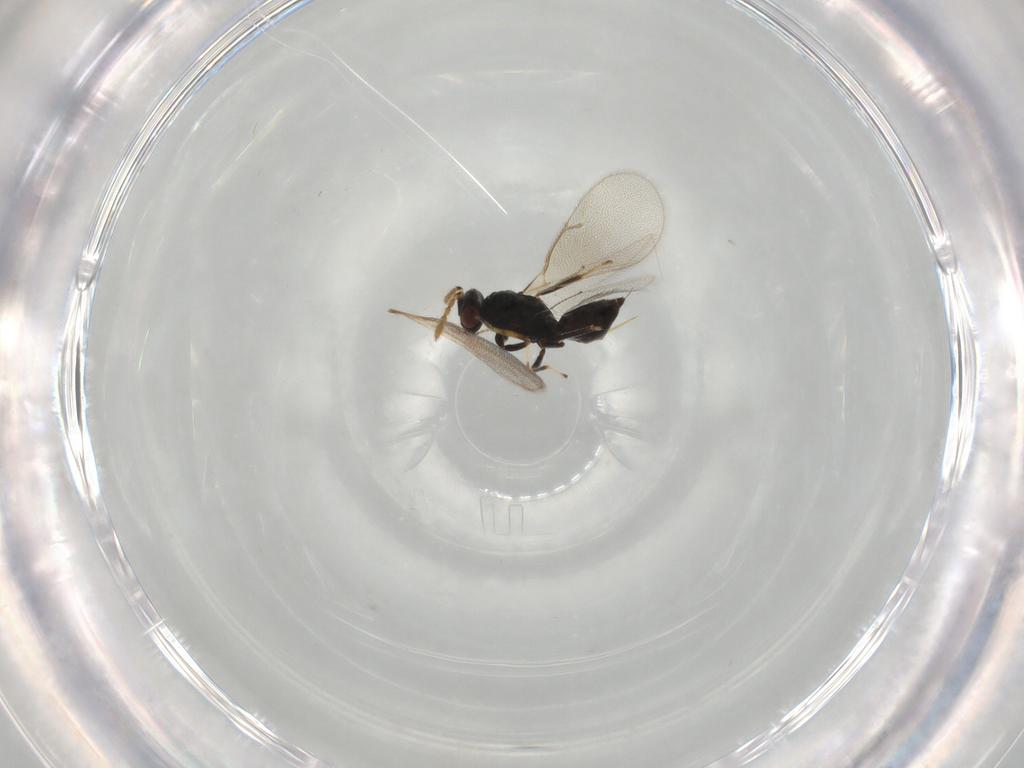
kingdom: Animalia
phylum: Arthropoda
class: Insecta
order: Hymenoptera
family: Eulophidae
